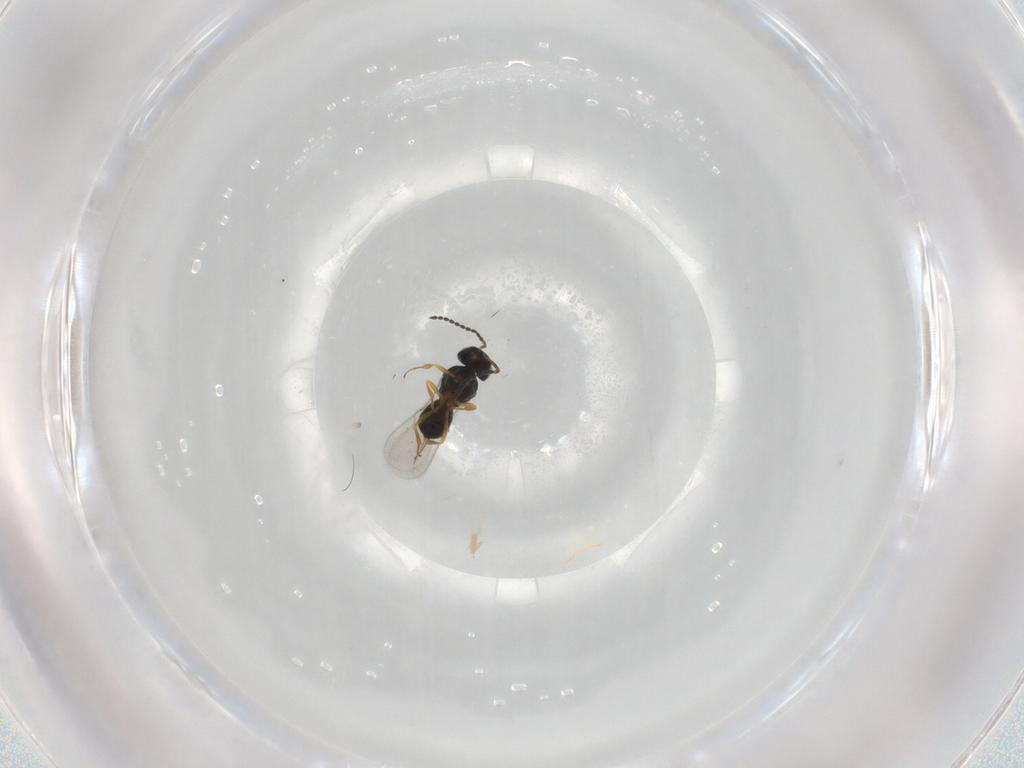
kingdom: Animalia
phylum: Arthropoda
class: Insecta
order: Hymenoptera
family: Scelionidae
